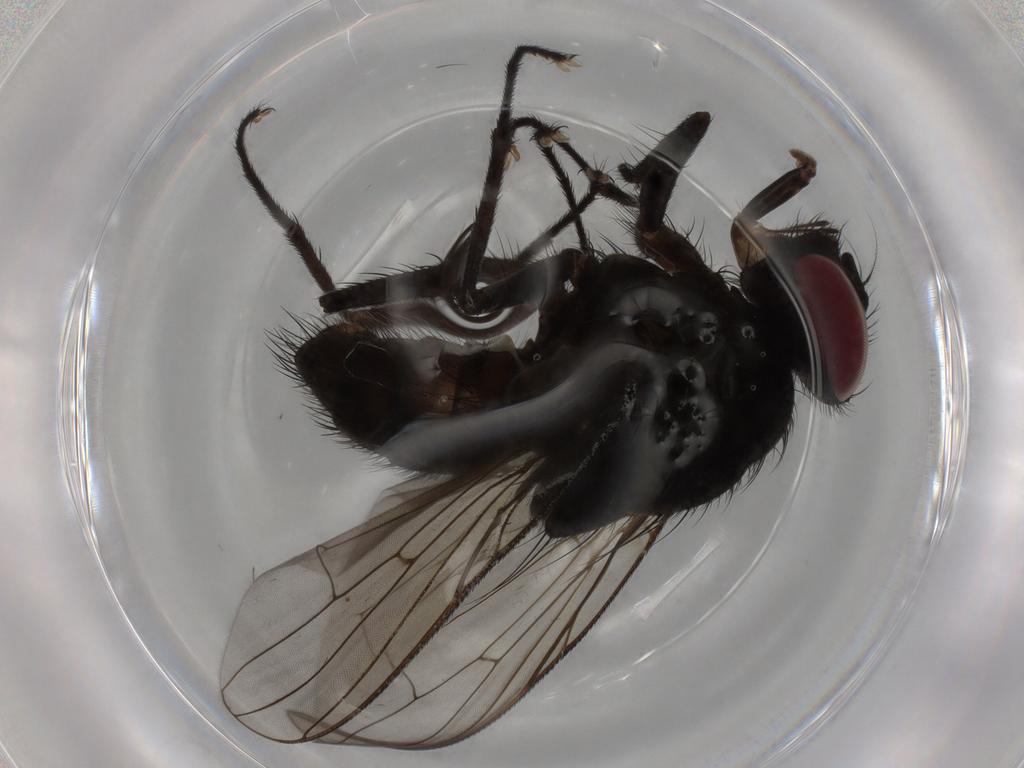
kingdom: Animalia
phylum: Arthropoda
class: Insecta
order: Diptera
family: Muscidae
